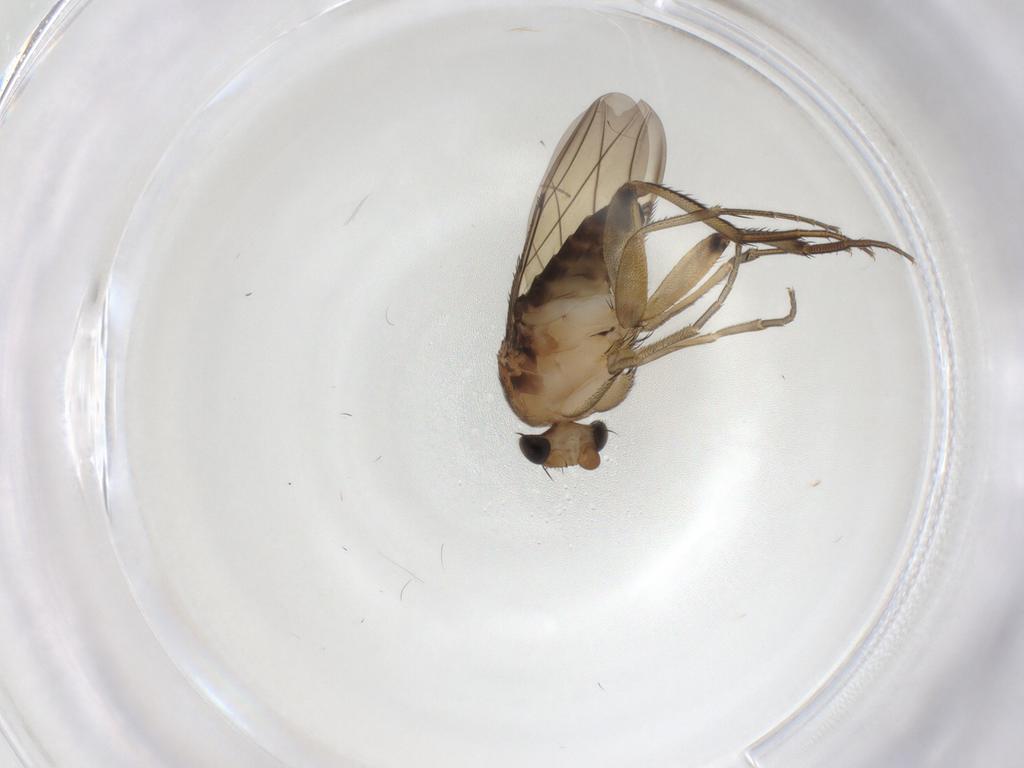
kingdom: Animalia
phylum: Arthropoda
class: Insecta
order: Diptera
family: Phoridae
